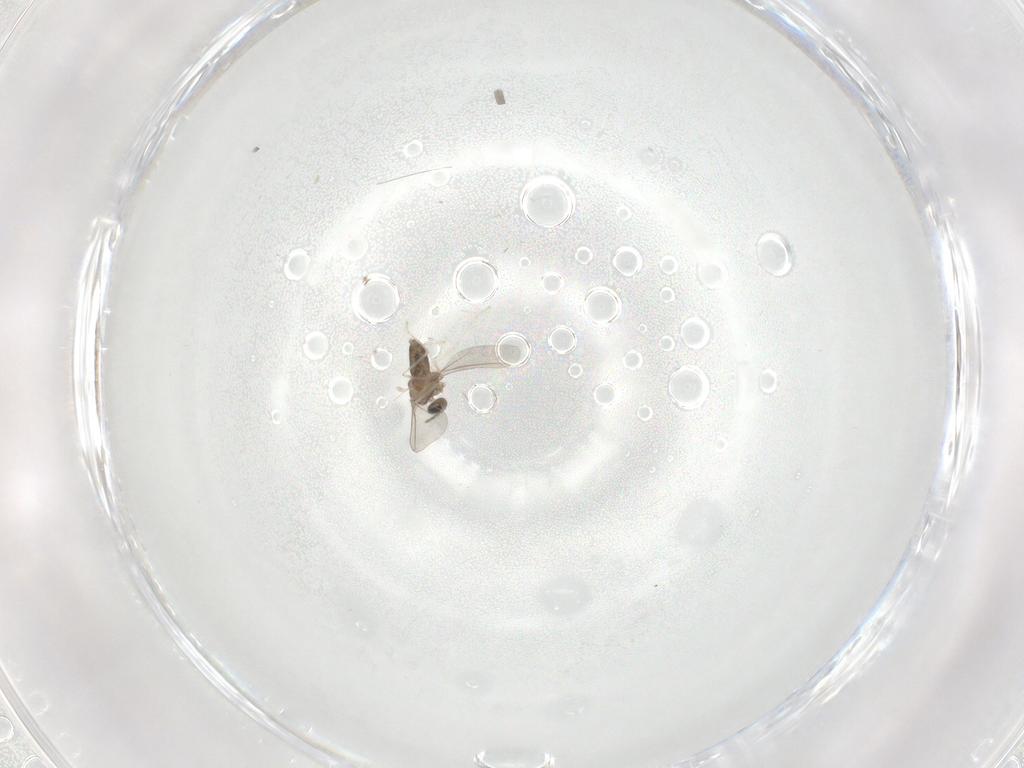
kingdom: Animalia
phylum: Arthropoda
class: Insecta
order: Diptera
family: Cecidomyiidae
